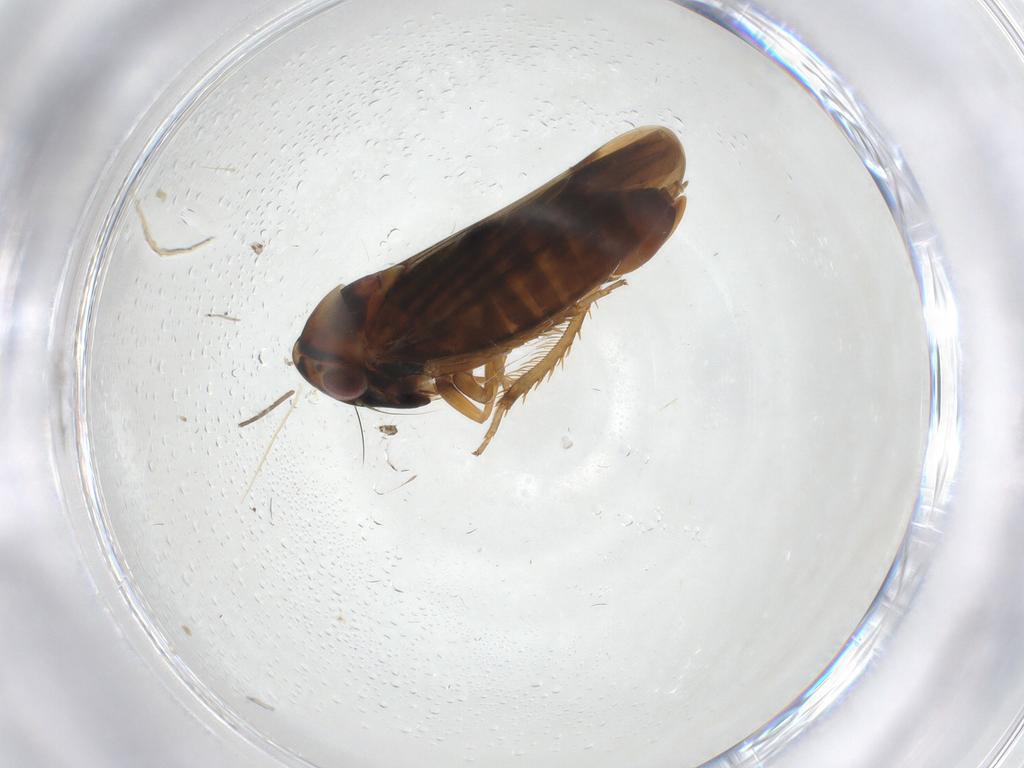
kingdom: Animalia
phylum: Arthropoda
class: Insecta
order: Hemiptera
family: Cicadellidae
